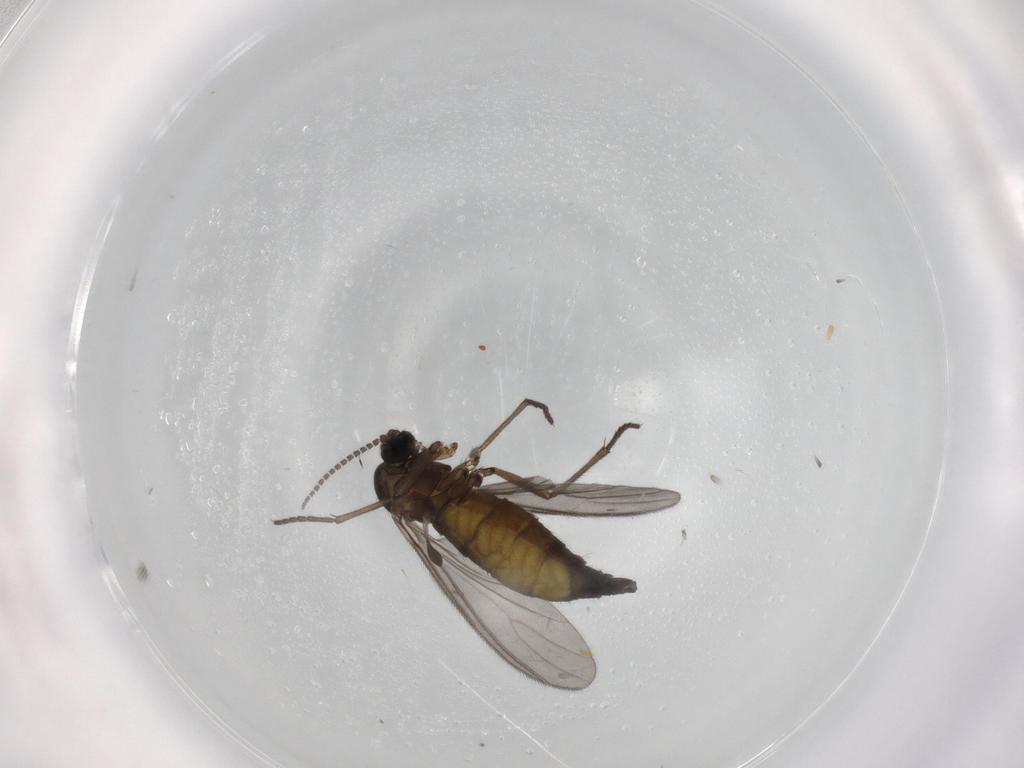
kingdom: Animalia
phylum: Arthropoda
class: Insecta
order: Diptera
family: Sciaridae
